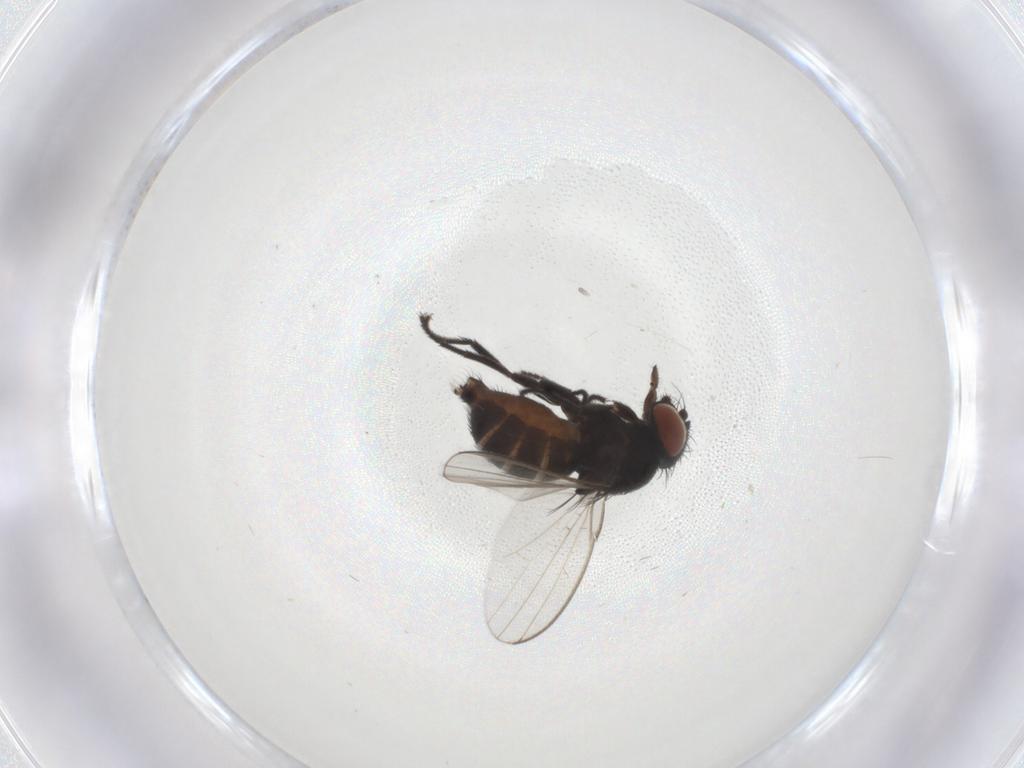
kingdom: Animalia
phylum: Arthropoda
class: Insecta
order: Diptera
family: Milichiidae
